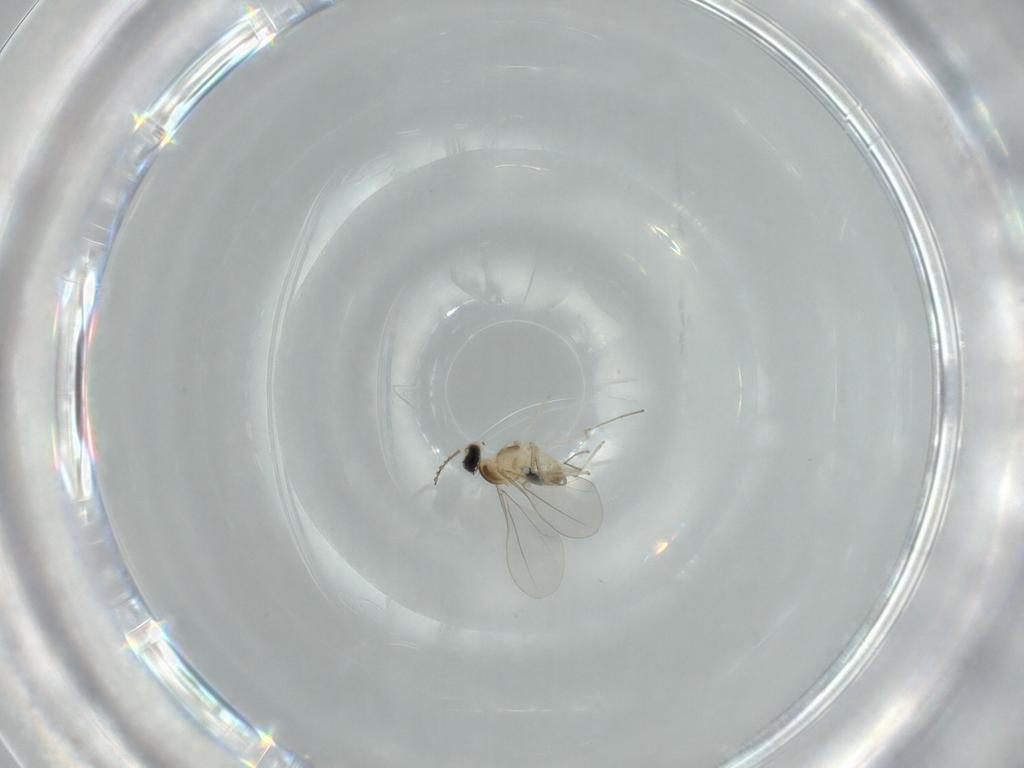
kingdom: Animalia
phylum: Arthropoda
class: Insecta
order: Diptera
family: Cecidomyiidae
